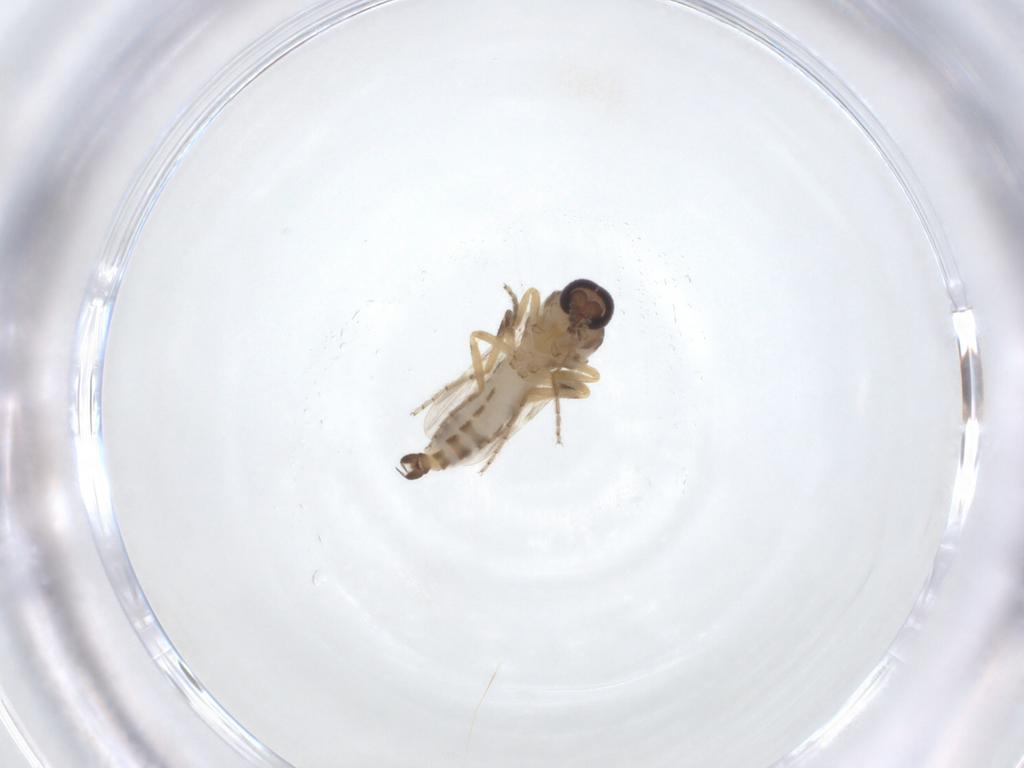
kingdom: Animalia
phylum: Arthropoda
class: Insecta
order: Diptera
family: Ceratopogonidae
